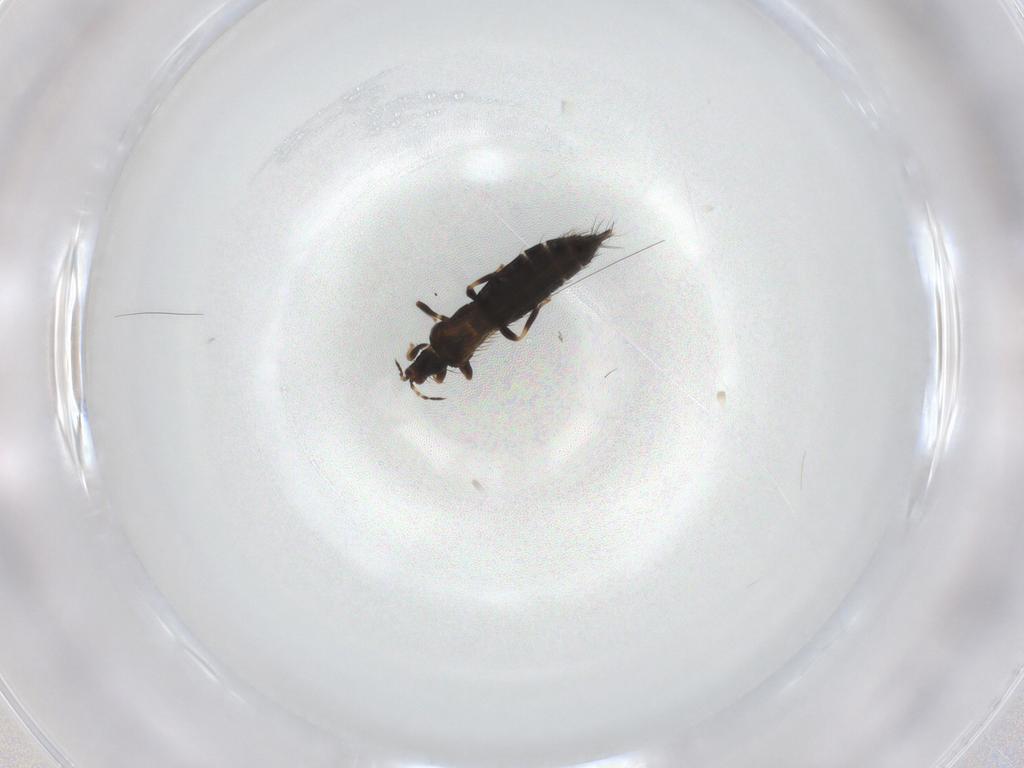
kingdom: Animalia
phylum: Arthropoda
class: Insecta
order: Thysanoptera
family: Thripidae
